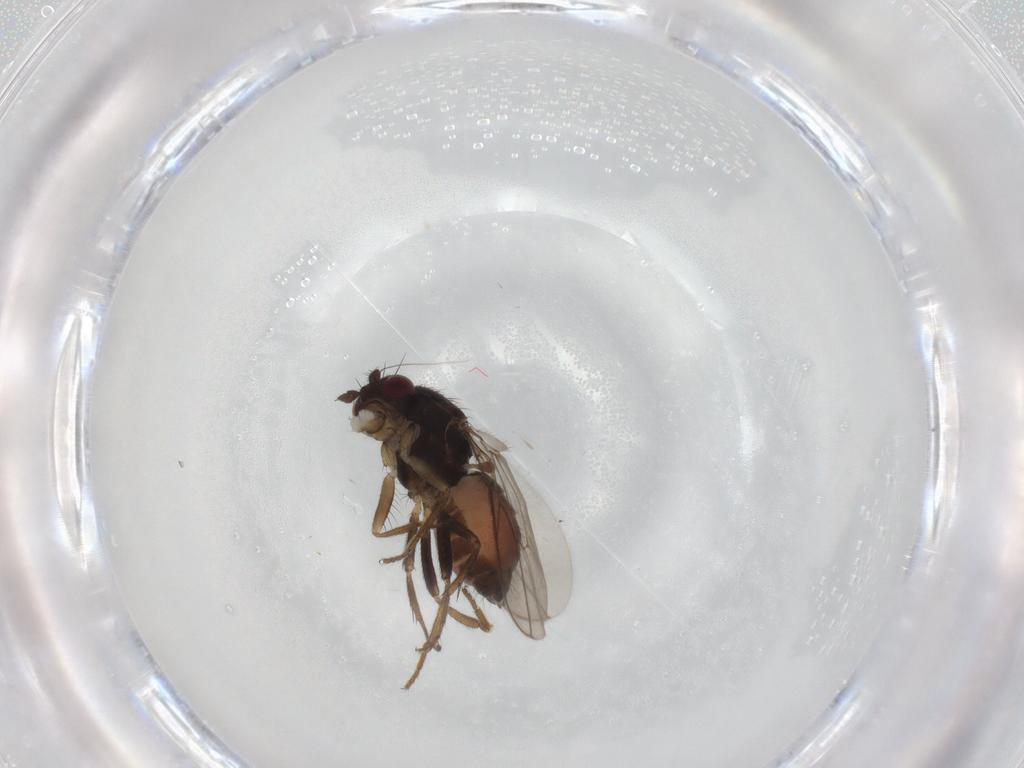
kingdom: Animalia
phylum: Arthropoda
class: Insecta
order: Diptera
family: Sphaeroceridae
